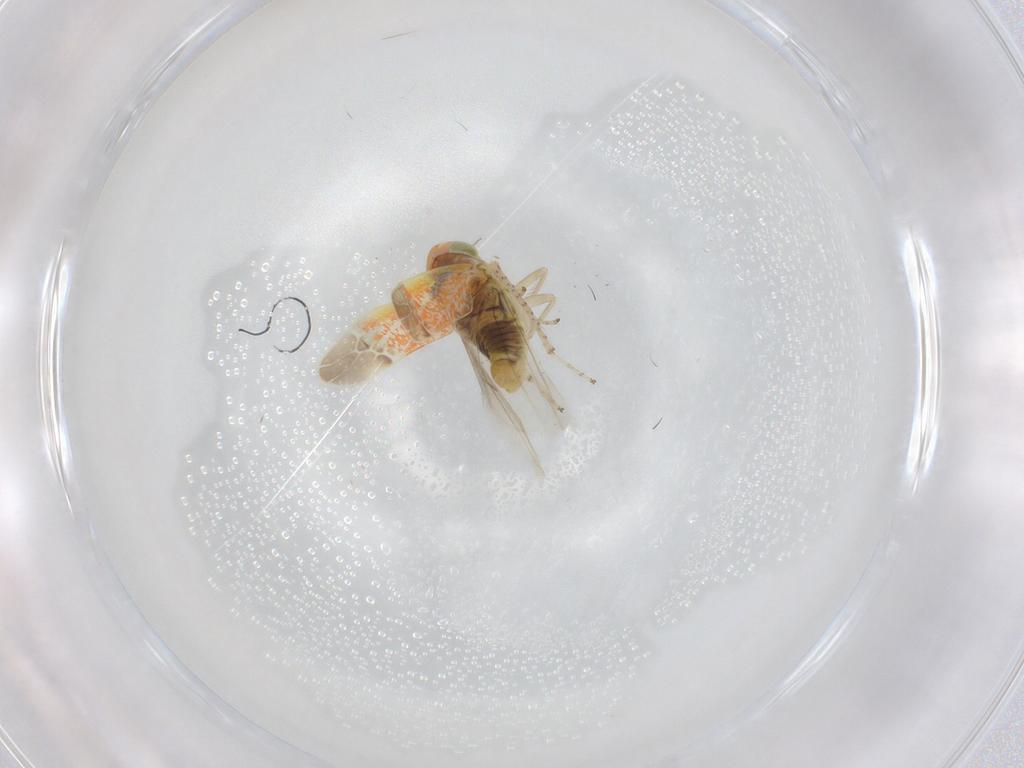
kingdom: Animalia
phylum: Arthropoda
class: Insecta
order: Hemiptera
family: Cicadellidae
